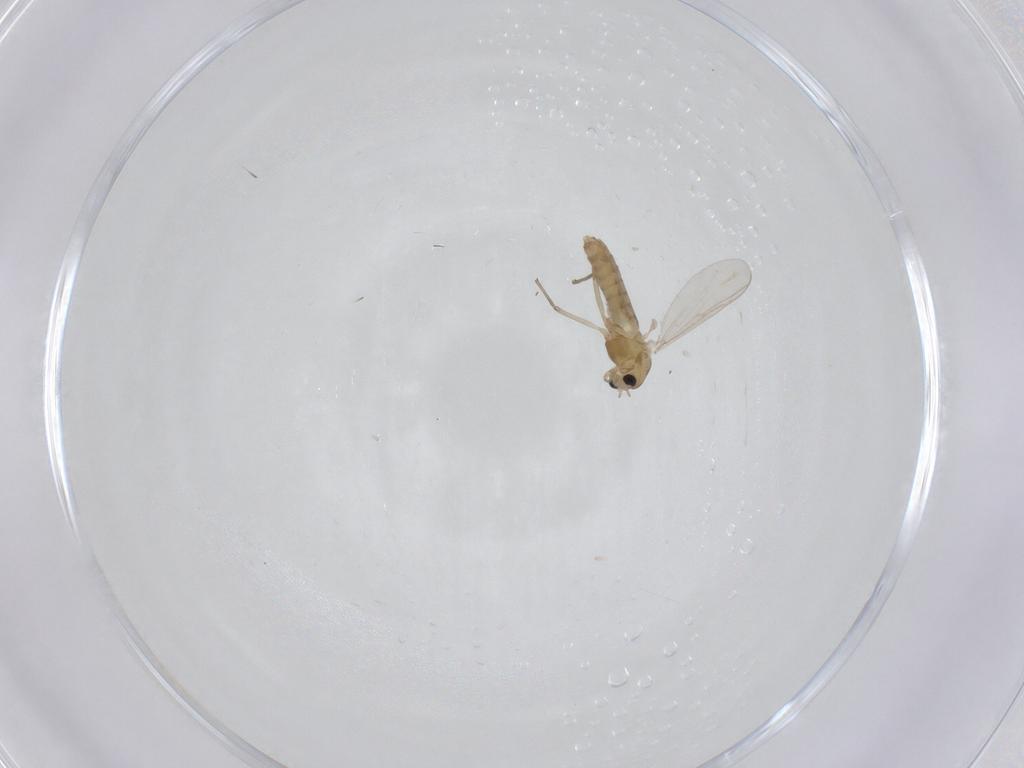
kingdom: Animalia
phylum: Arthropoda
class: Insecta
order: Diptera
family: Chironomidae
